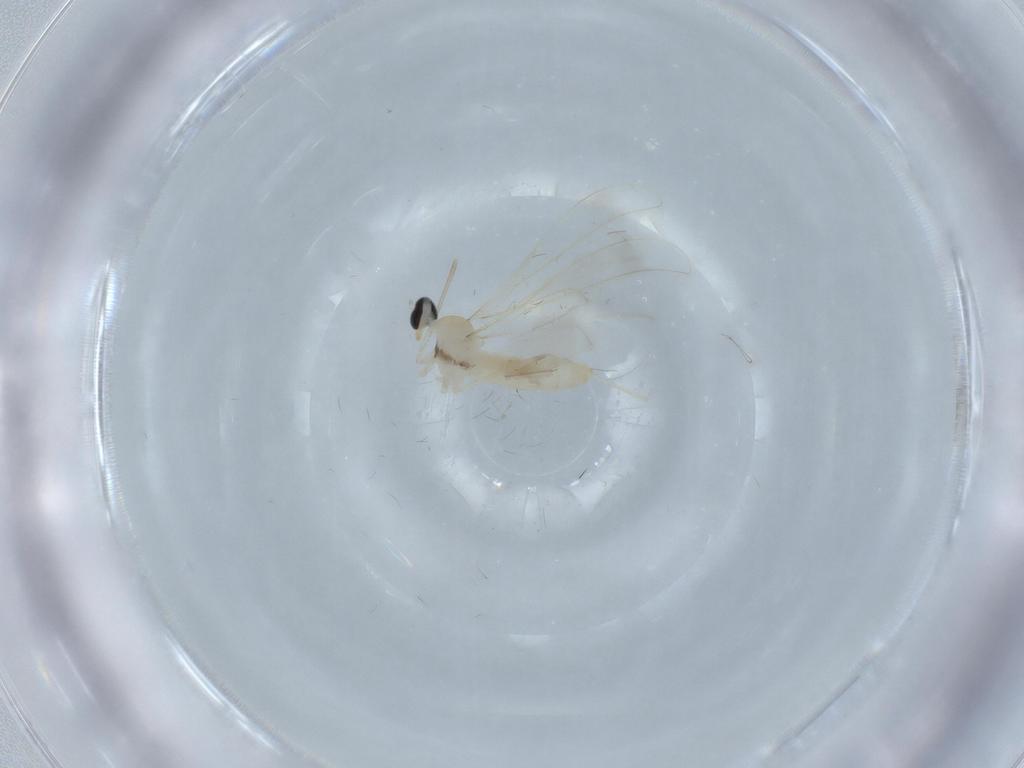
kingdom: Animalia
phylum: Arthropoda
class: Insecta
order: Diptera
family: Cecidomyiidae
